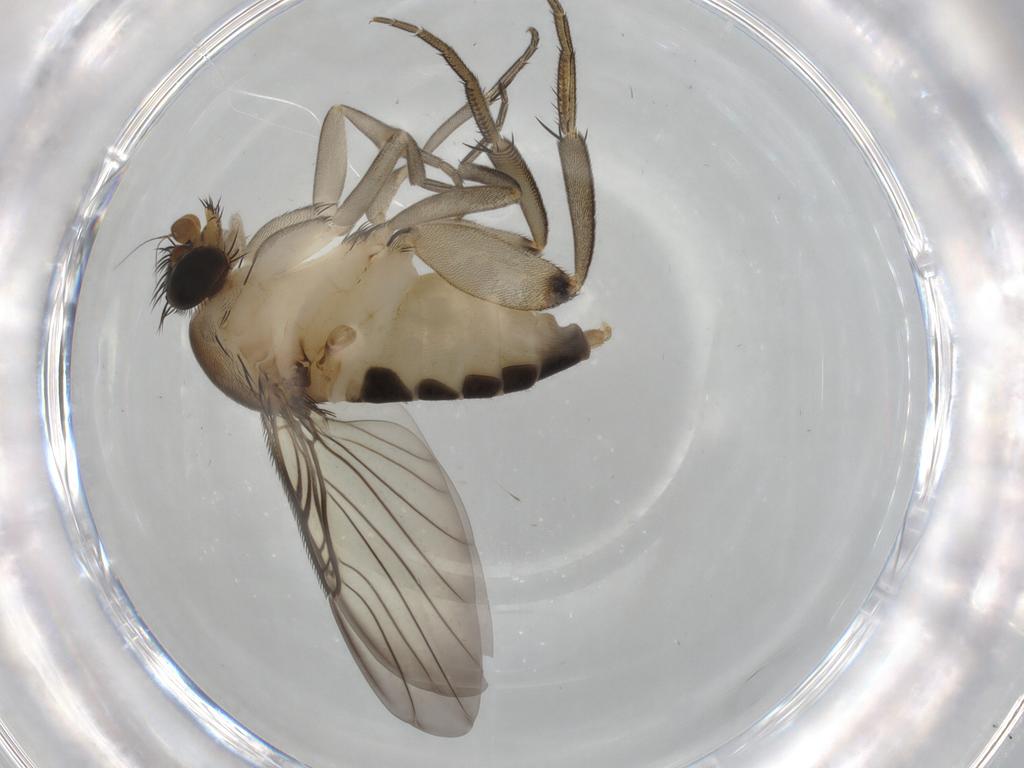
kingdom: Animalia
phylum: Arthropoda
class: Insecta
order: Diptera
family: Phoridae
